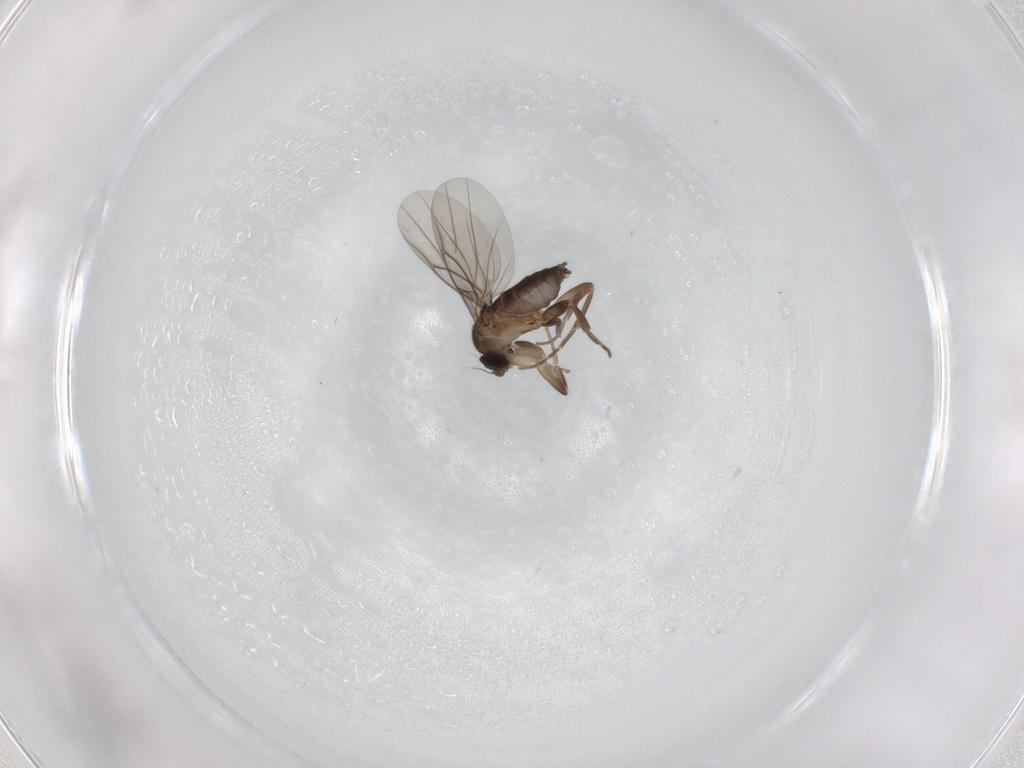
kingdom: Animalia
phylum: Arthropoda
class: Insecta
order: Diptera
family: Phoridae
